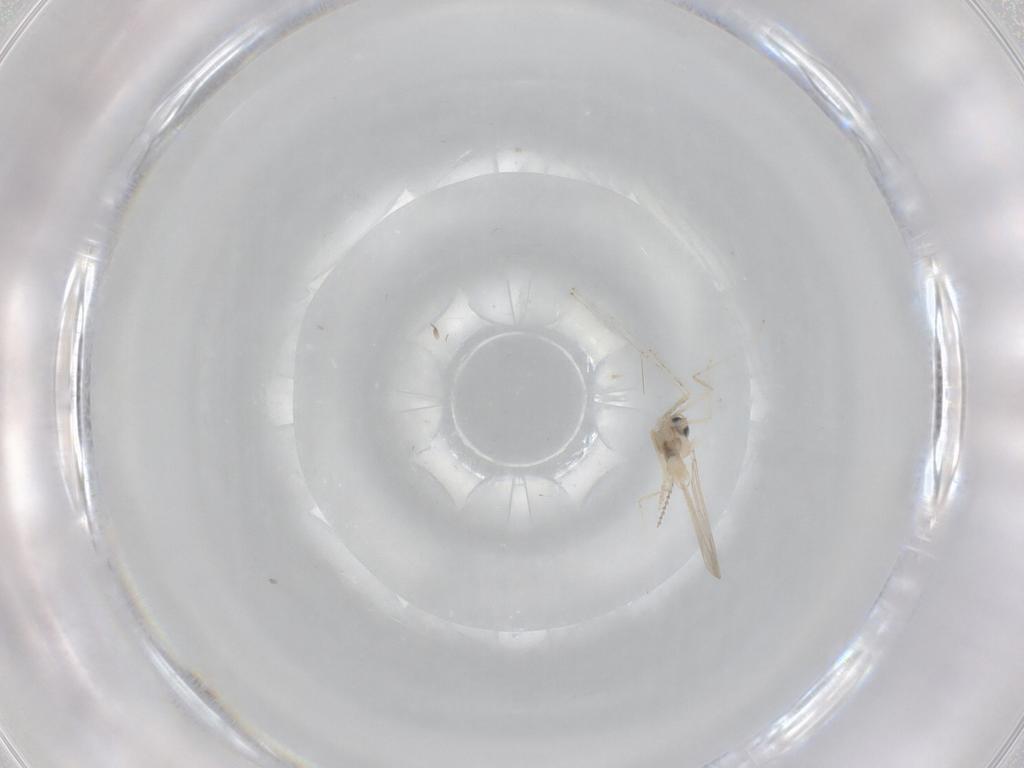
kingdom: Animalia
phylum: Arthropoda
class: Insecta
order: Diptera
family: Cecidomyiidae
